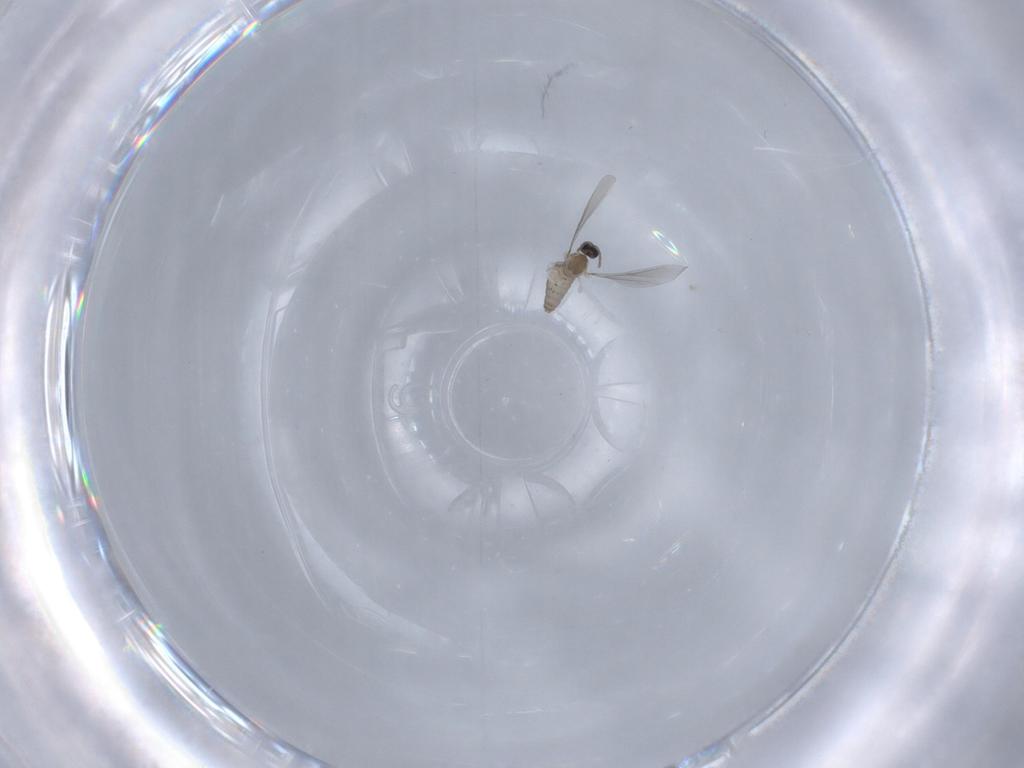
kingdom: Animalia
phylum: Arthropoda
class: Insecta
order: Diptera
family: Cecidomyiidae
